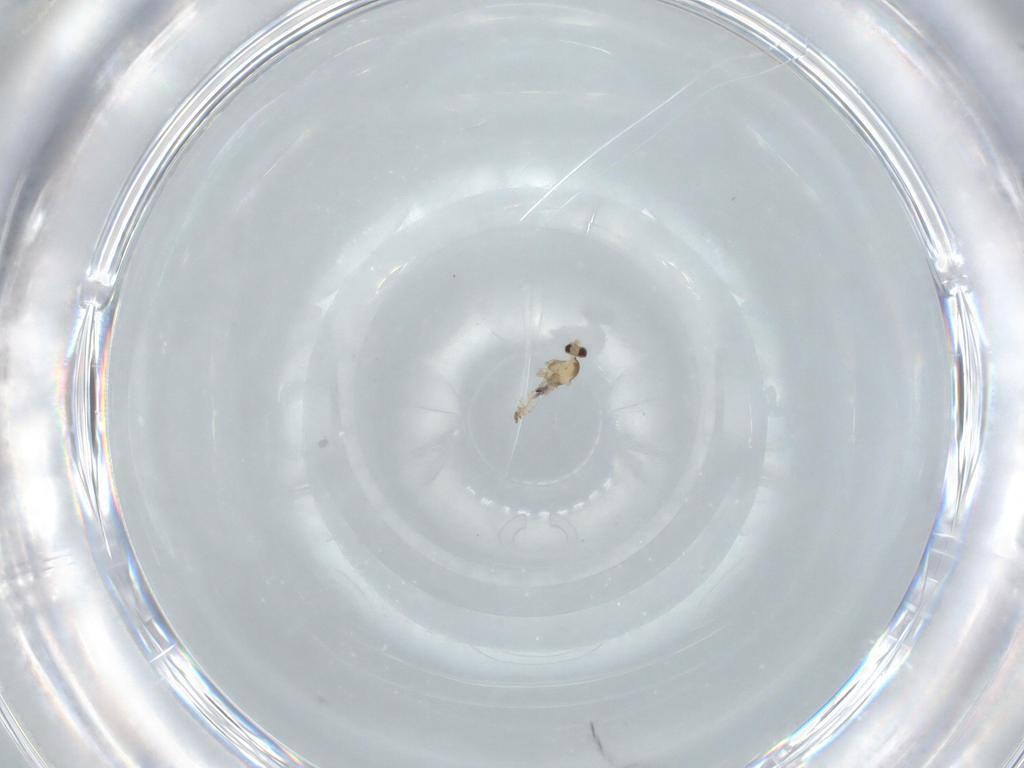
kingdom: Animalia
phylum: Arthropoda
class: Insecta
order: Diptera
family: Cecidomyiidae
